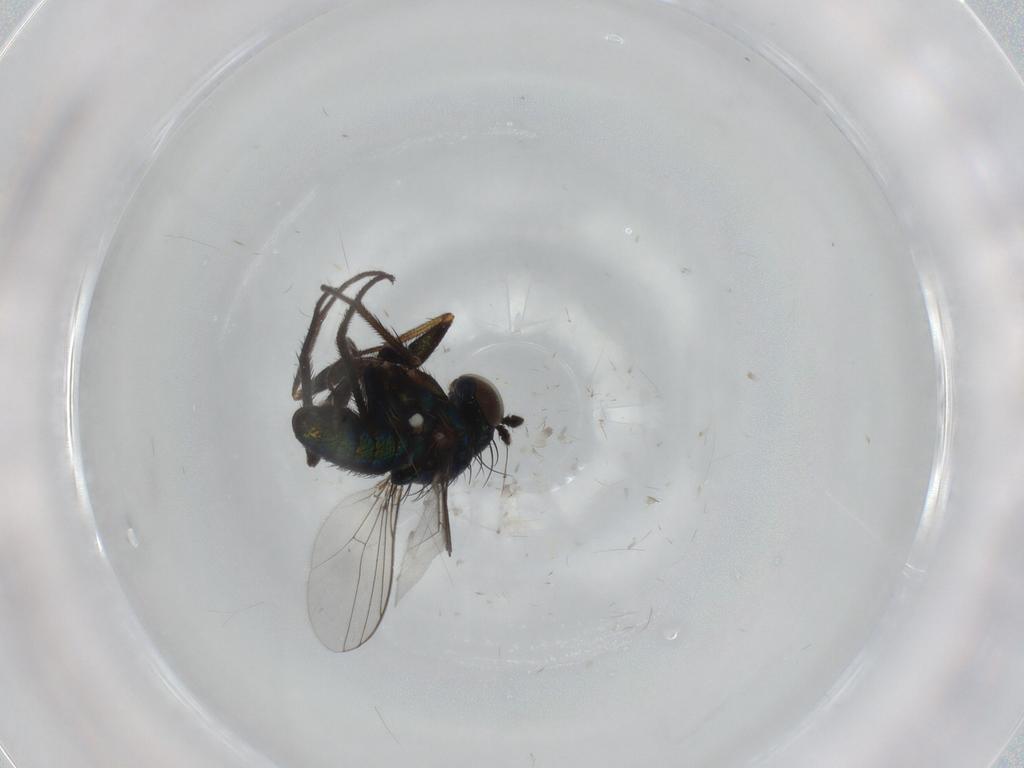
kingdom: Animalia
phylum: Arthropoda
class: Insecta
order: Diptera
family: Dolichopodidae
